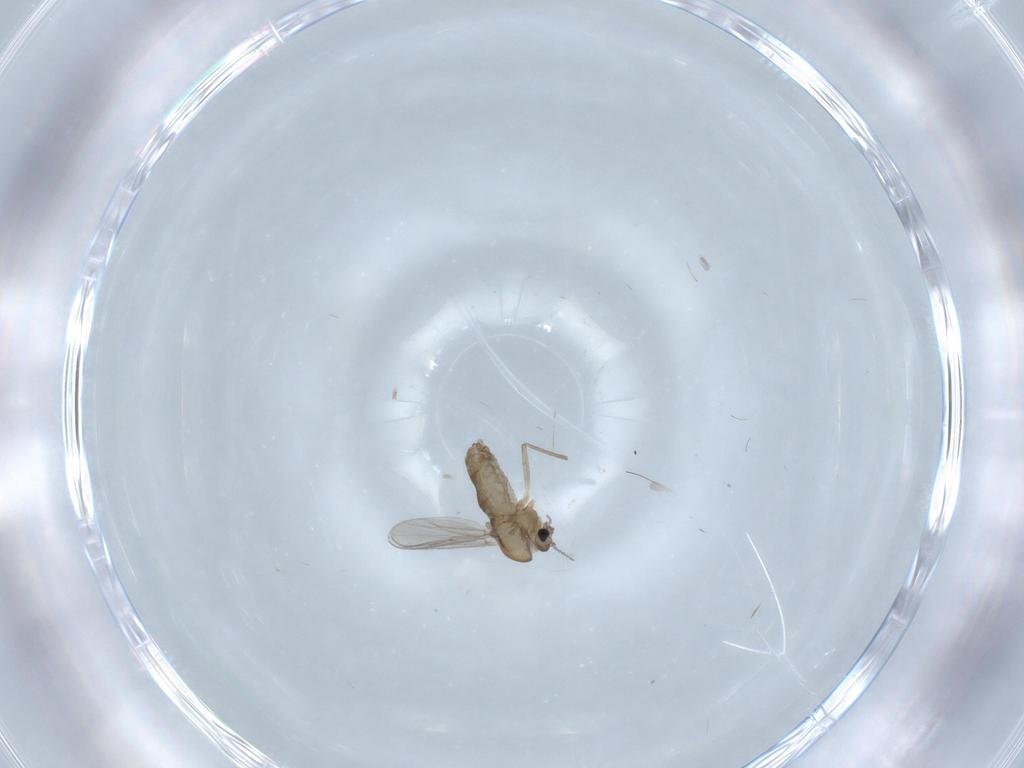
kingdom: Animalia
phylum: Arthropoda
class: Insecta
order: Diptera
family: Chironomidae
